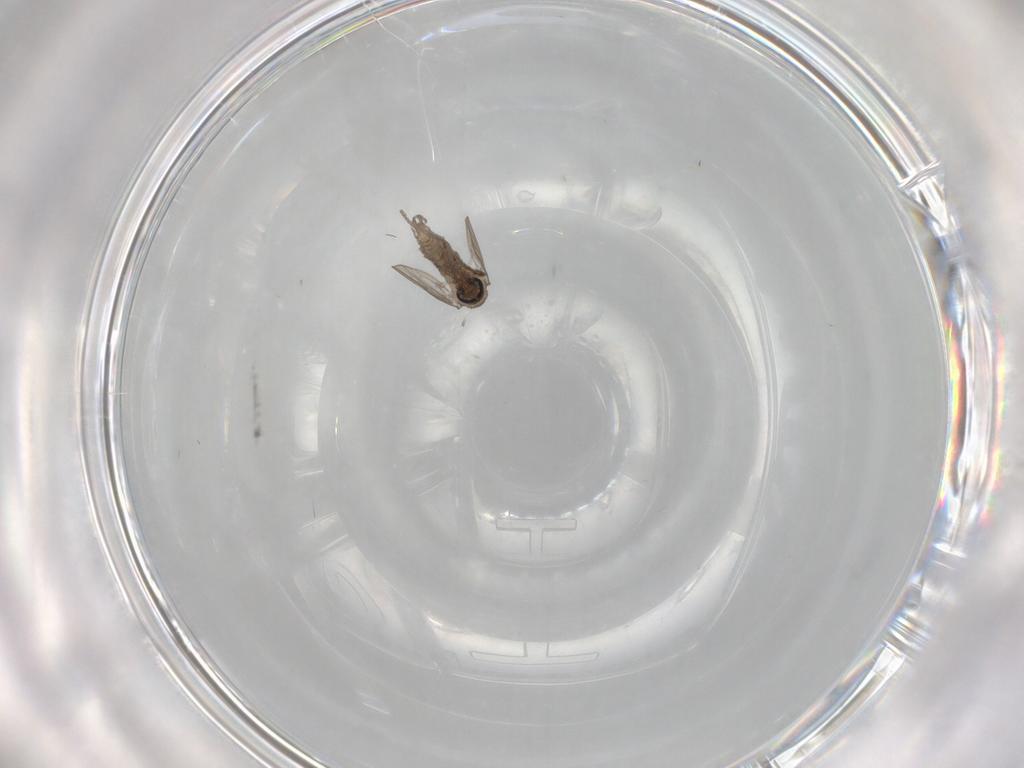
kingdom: Animalia
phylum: Arthropoda
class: Insecta
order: Diptera
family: Psychodidae
